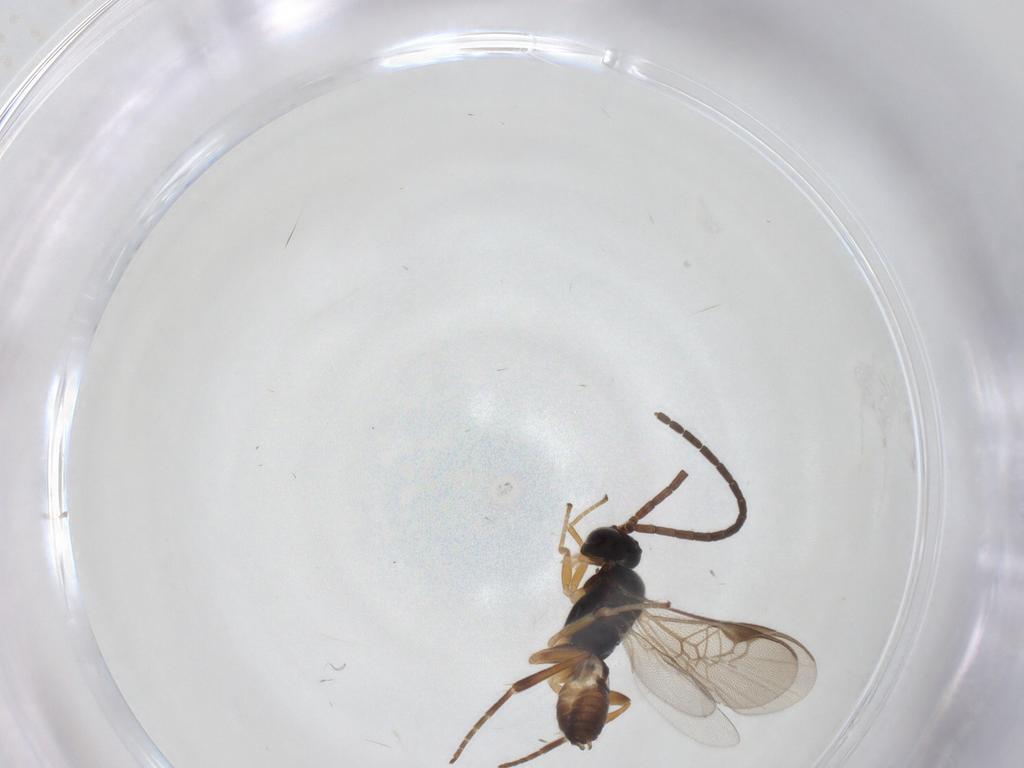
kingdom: Animalia
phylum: Arthropoda
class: Insecta
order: Hymenoptera
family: Braconidae
